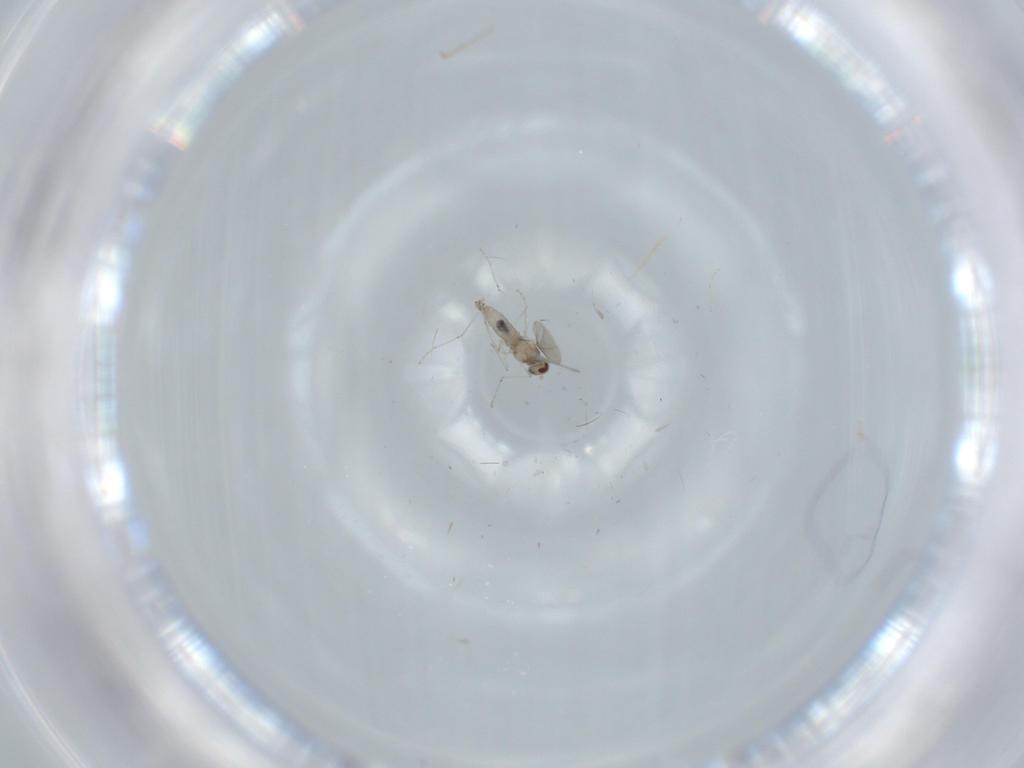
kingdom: Animalia
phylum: Arthropoda
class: Insecta
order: Diptera
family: Cecidomyiidae
